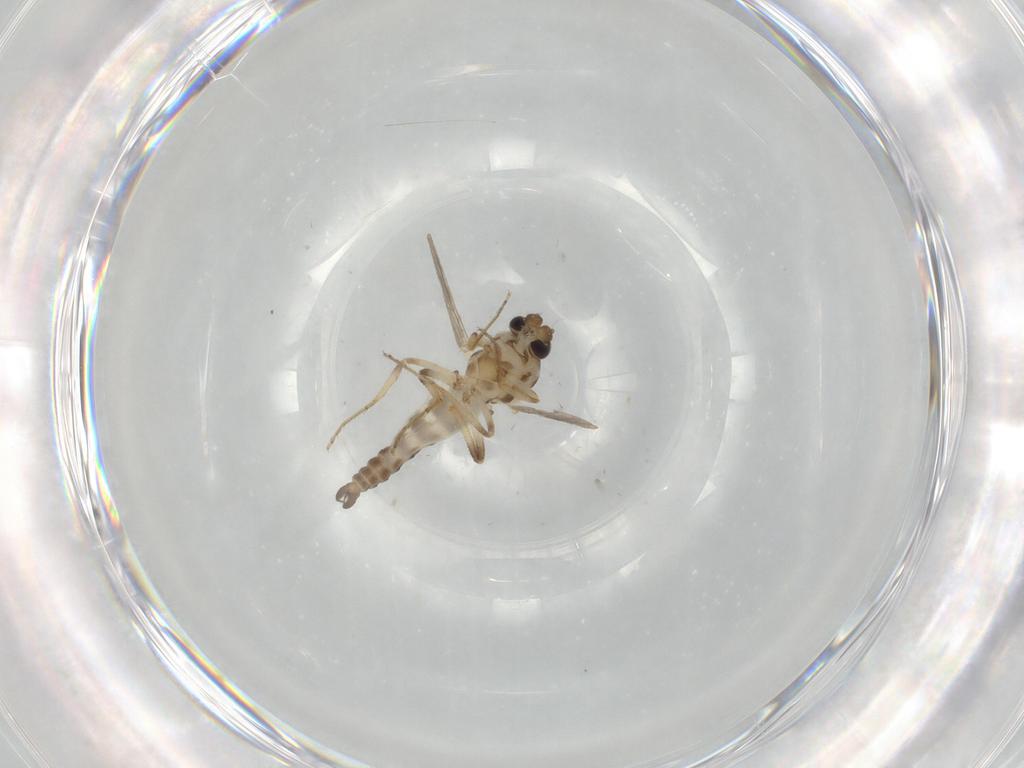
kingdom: Animalia
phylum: Arthropoda
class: Insecta
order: Diptera
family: Ceratopogonidae
